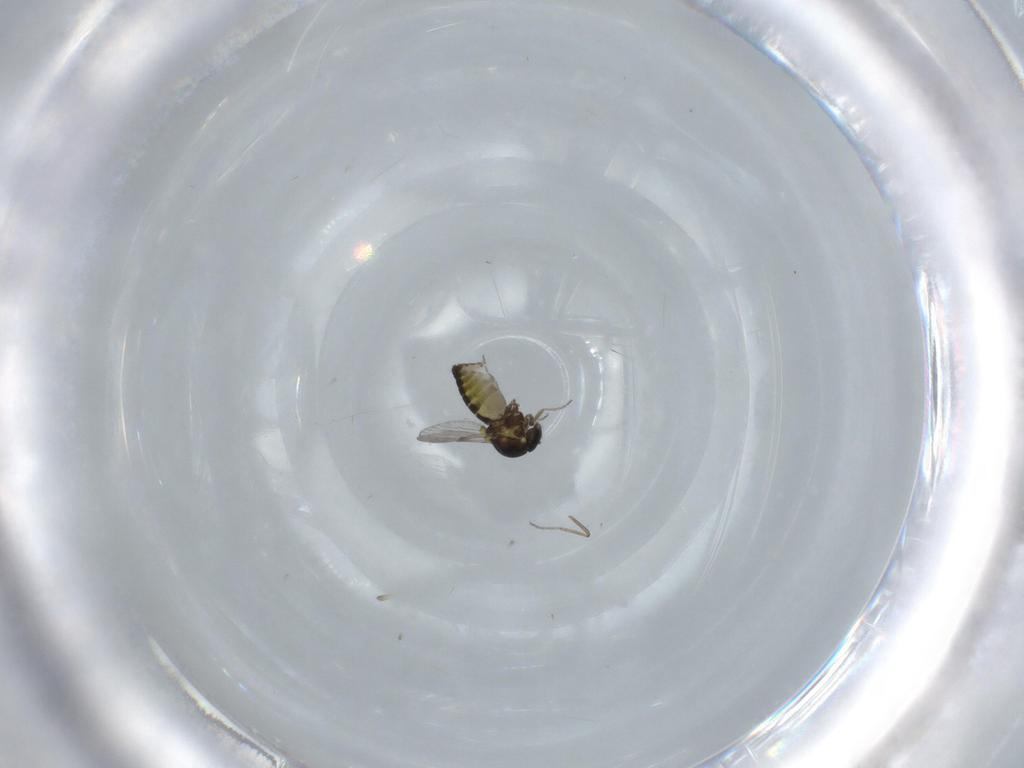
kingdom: Animalia
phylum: Arthropoda
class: Insecta
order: Diptera
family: Ceratopogonidae
